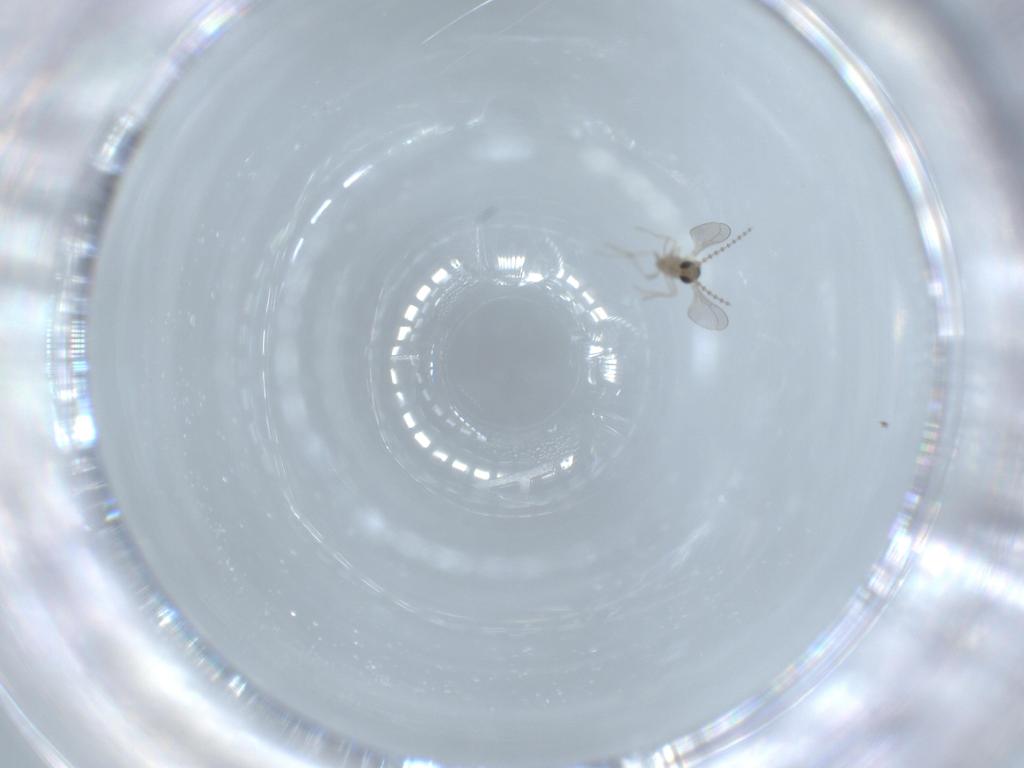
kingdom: Animalia
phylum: Arthropoda
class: Insecta
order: Diptera
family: Cecidomyiidae
